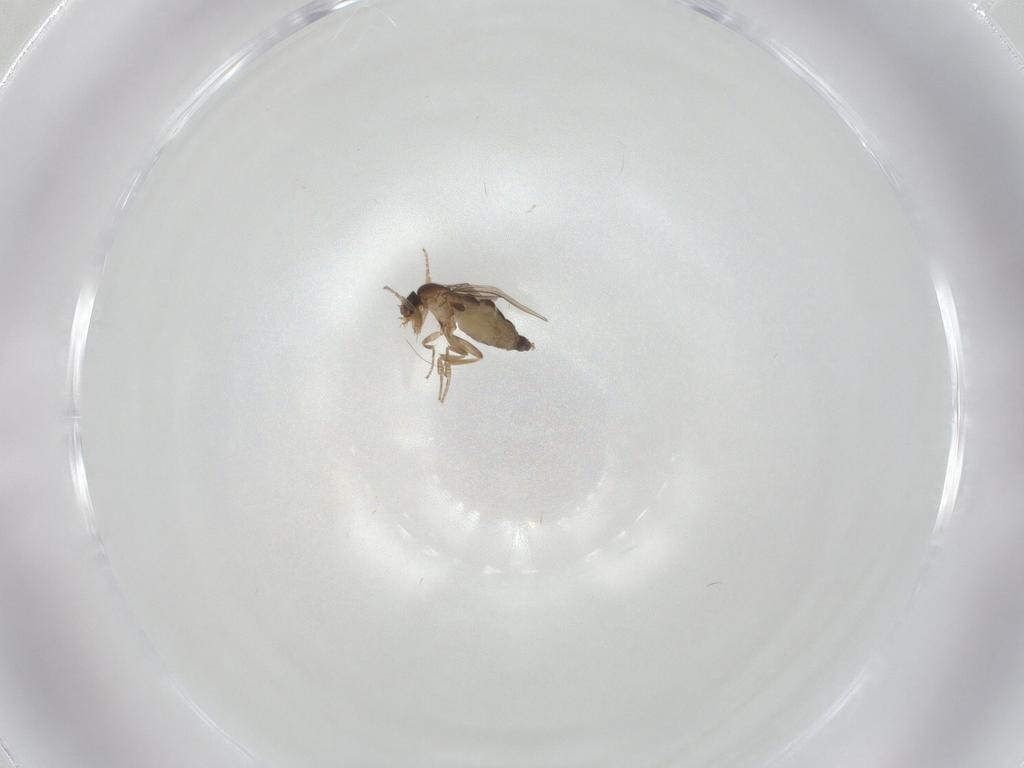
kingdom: Animalia
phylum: Arthropoda
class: Insecta
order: Diptera
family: Phoridae
